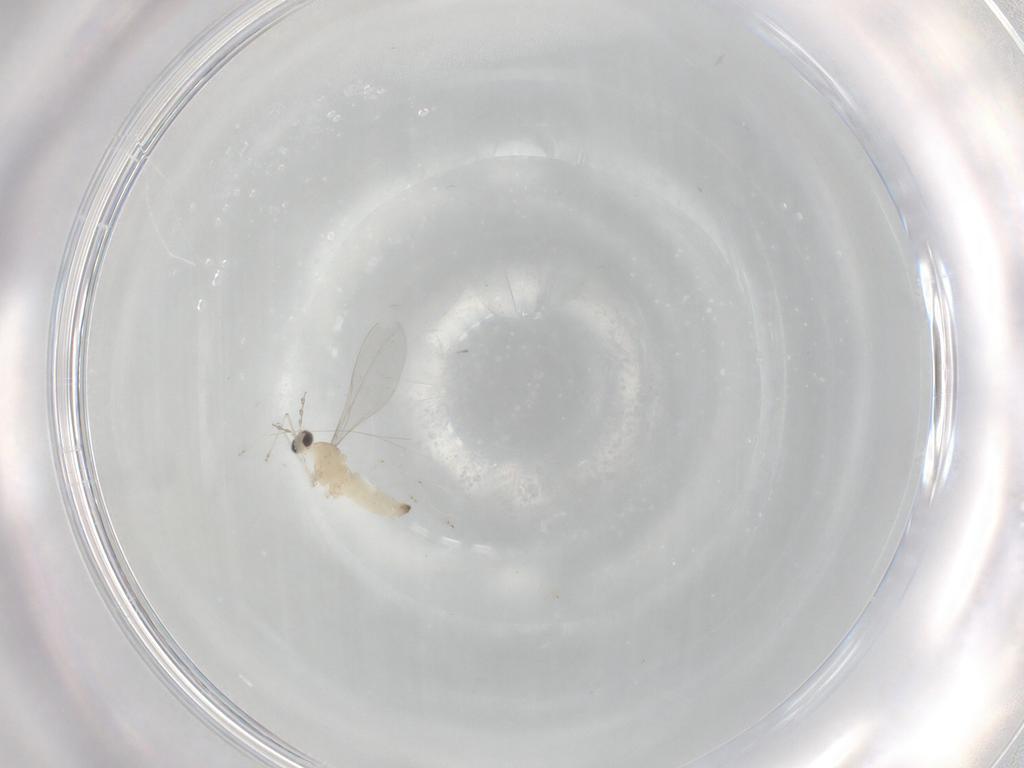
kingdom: Animalia
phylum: Arthropoda
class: Insecta
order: Diptera
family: Cecidomyiidae
